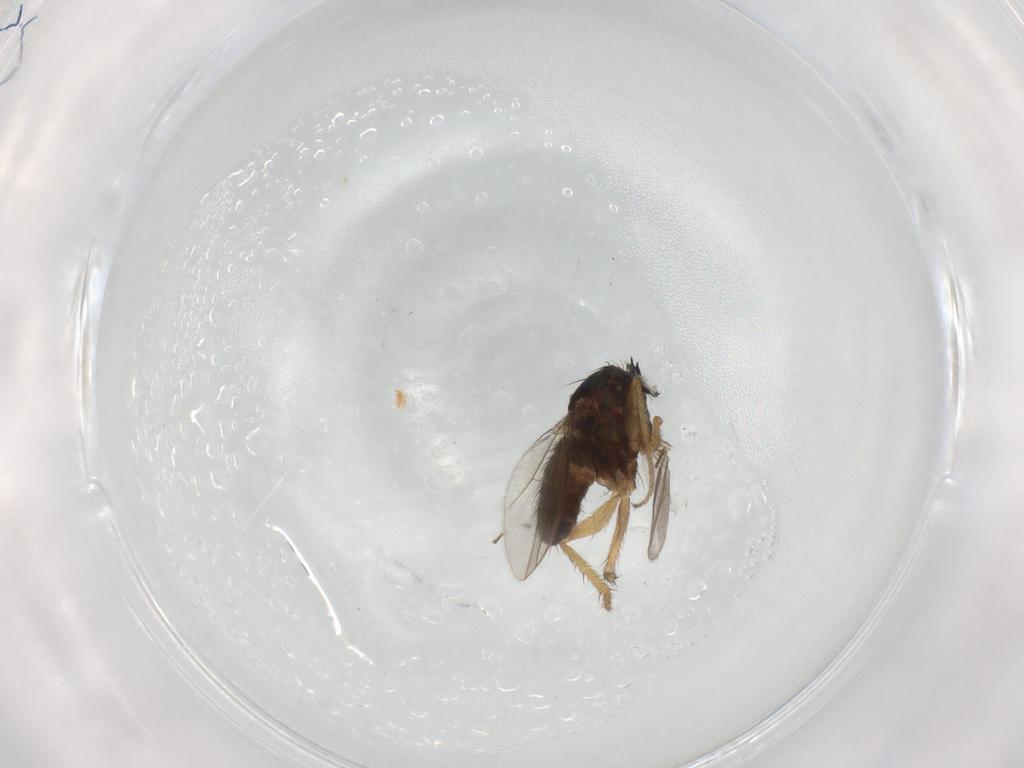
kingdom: Animalia
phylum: Arthropoda
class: Insecta
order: Diptera
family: Dolichopodidae
